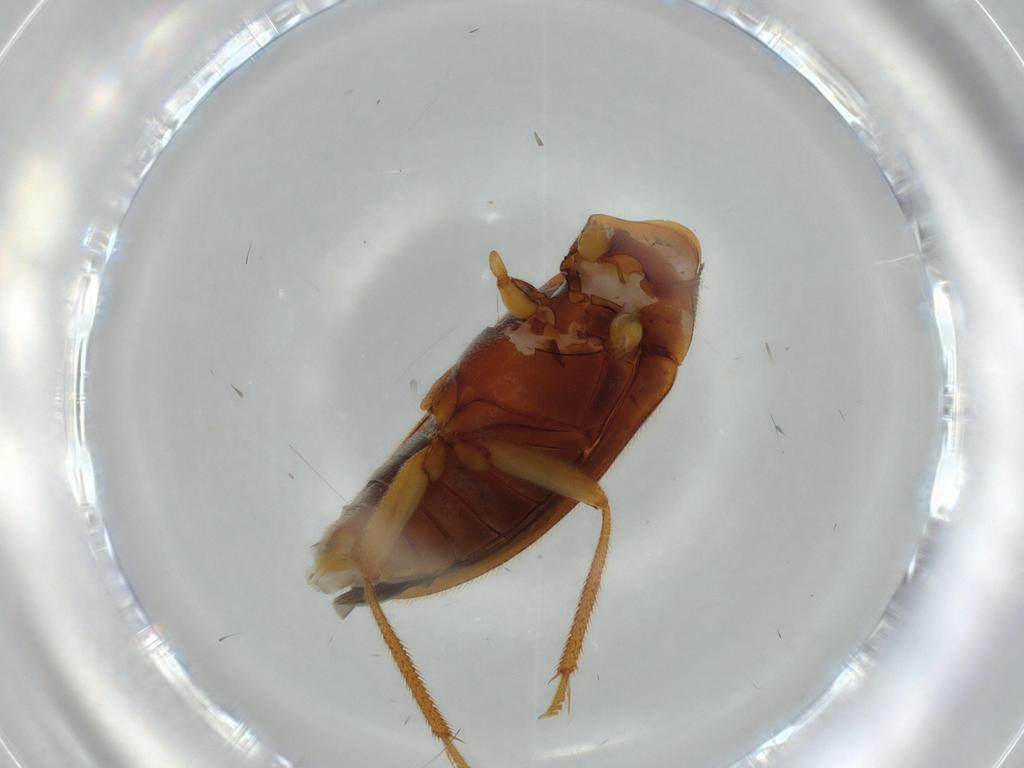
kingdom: Animalia
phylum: Arthropoda
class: Insecta
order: Coleoptera
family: Ptilodactylidae
